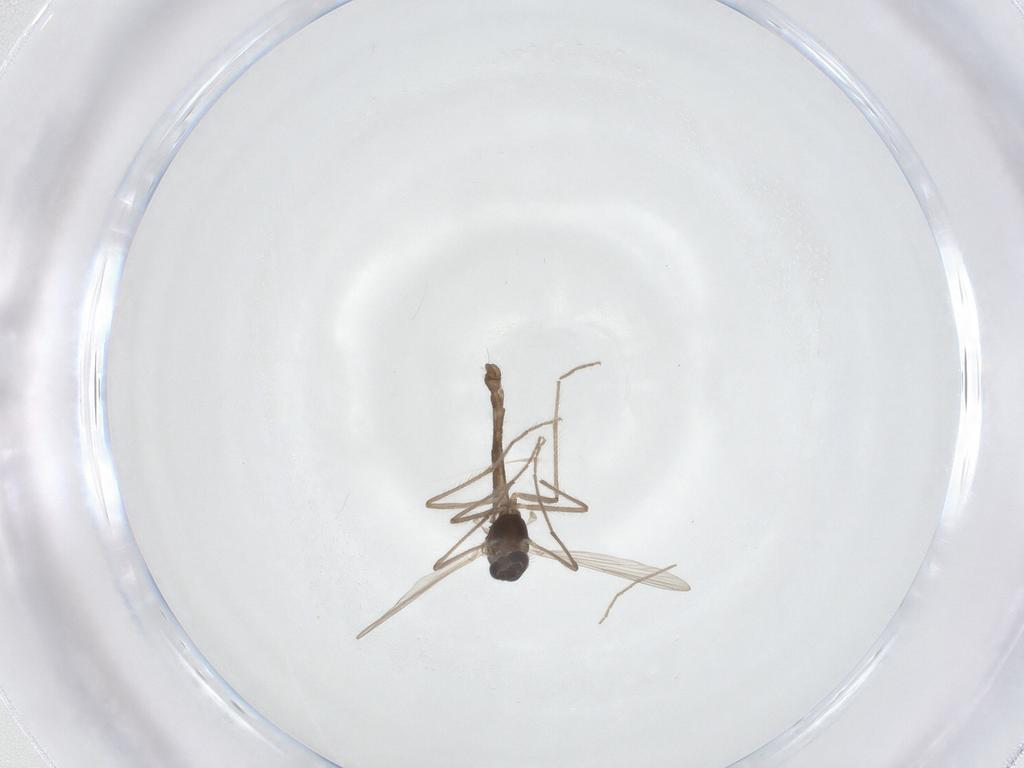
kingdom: Animalia
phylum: Arthropoda
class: Insecta
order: Diptera
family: Chironomidae
